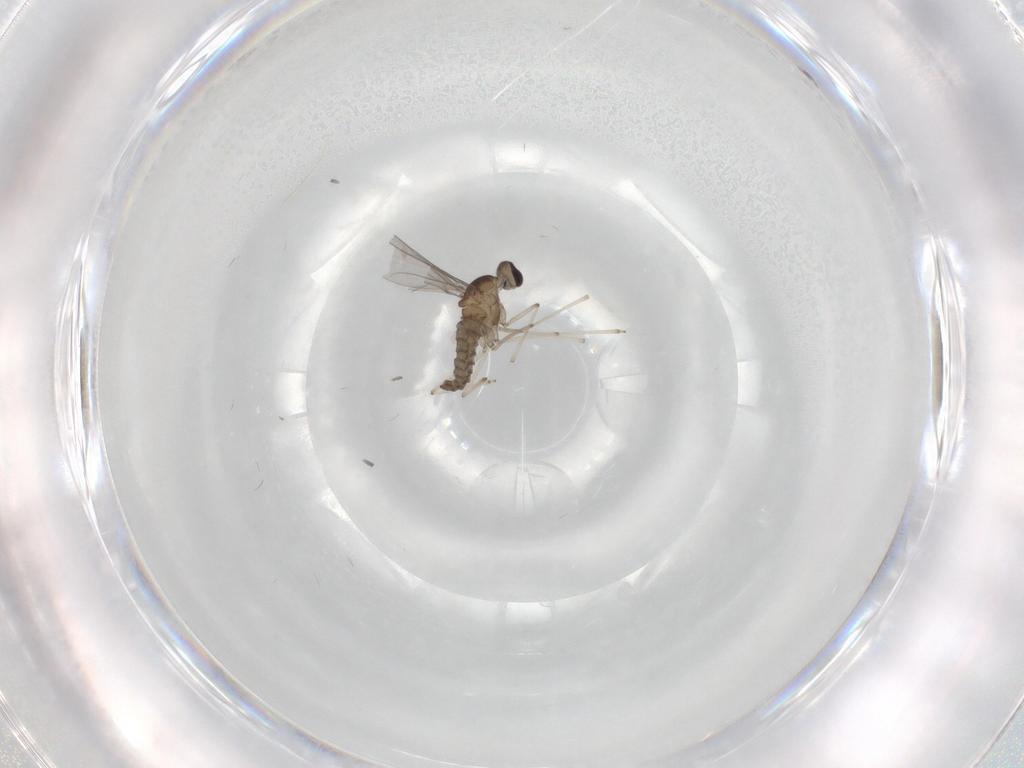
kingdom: Animalia
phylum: Arthropoda
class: Insecta
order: Diptera
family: Cecidomyiidae
